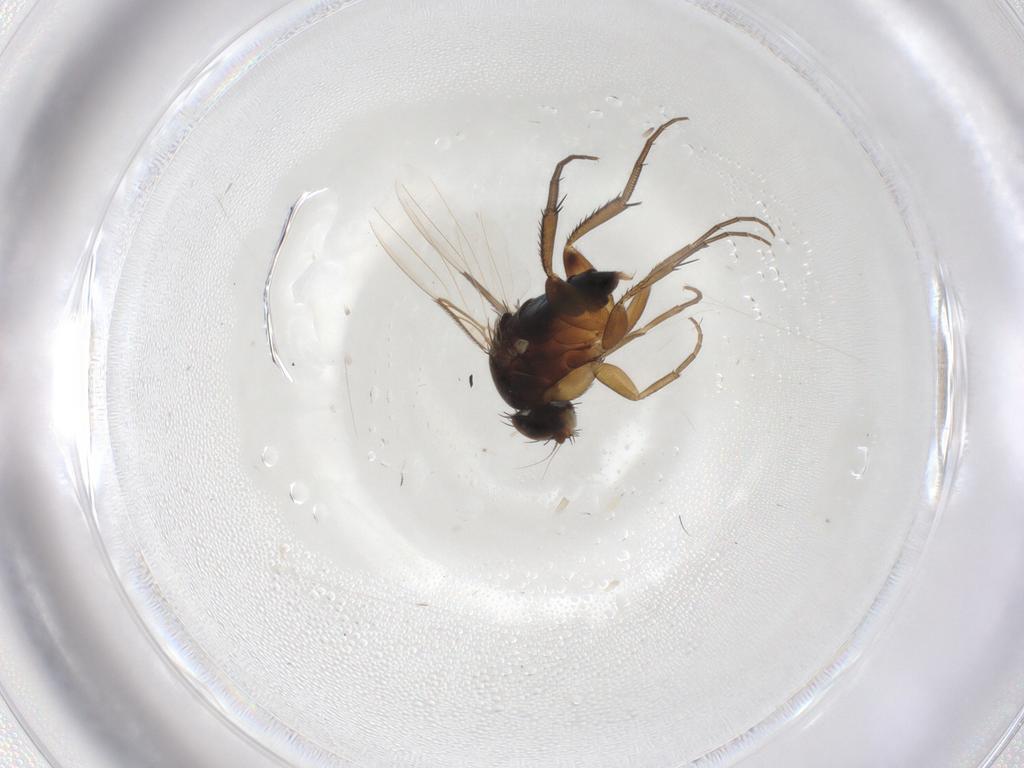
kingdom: Animalia
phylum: Arthropoda
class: Insecta
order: Diptera
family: Phoridae
